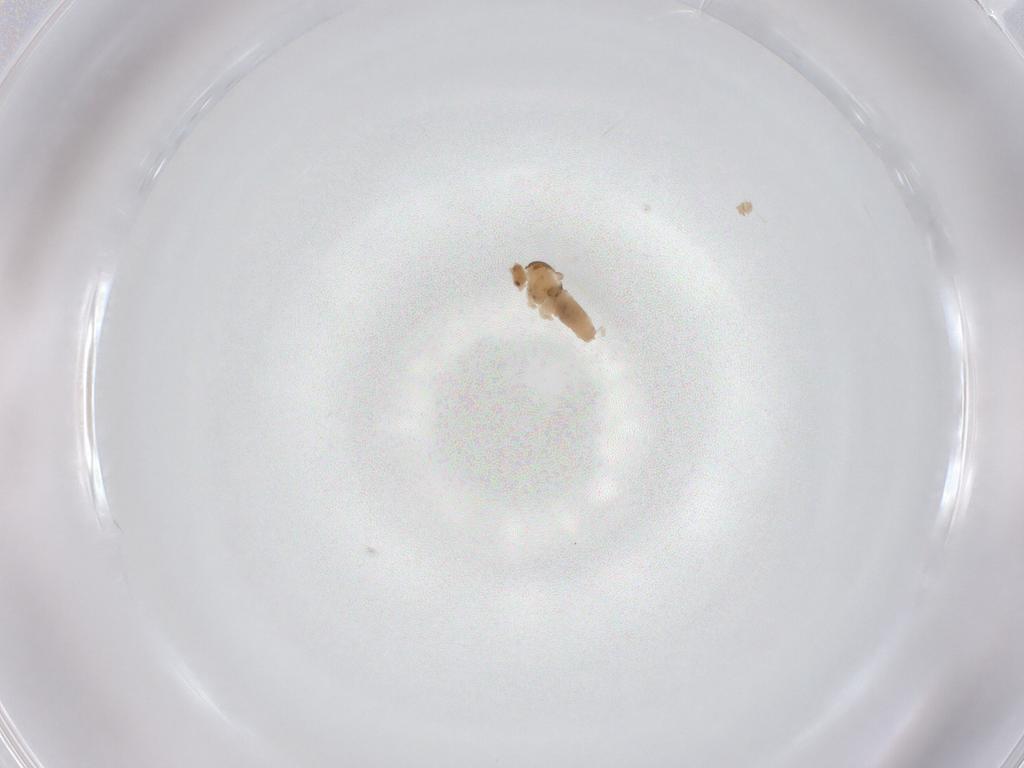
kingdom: Animalia
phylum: Arthropoda
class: Insecta
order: Diptera
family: Cecidomyiidae
